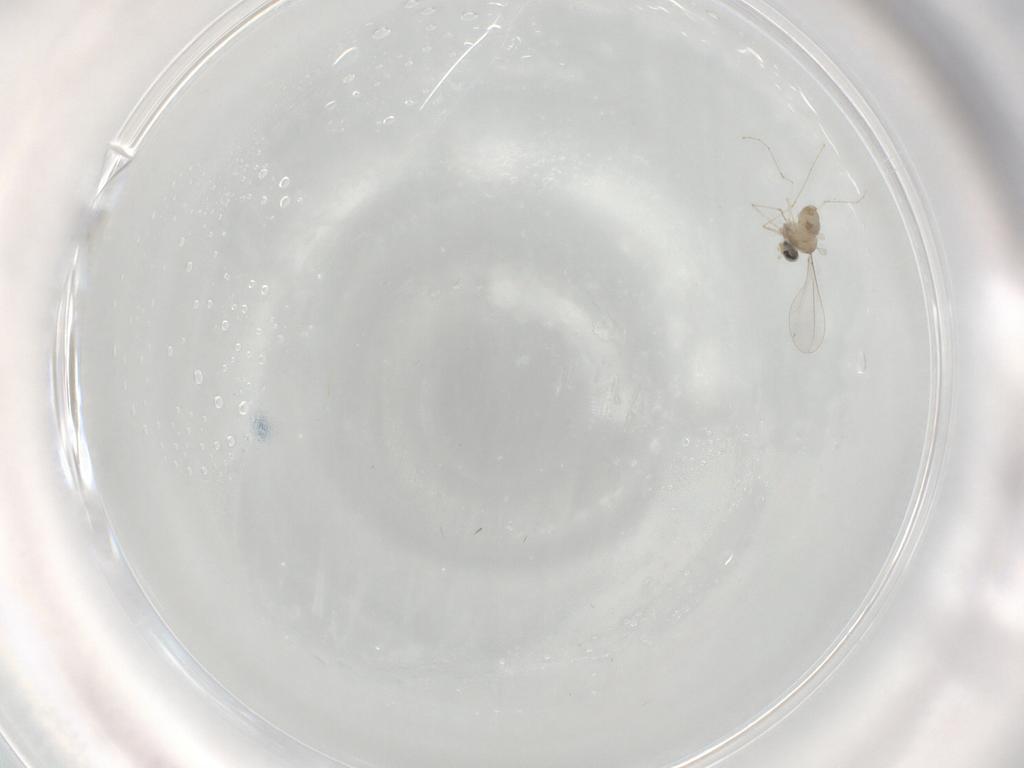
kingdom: Animalia
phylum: Arthropoda
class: Insecta
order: Diptera
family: Cecidomyiidae
